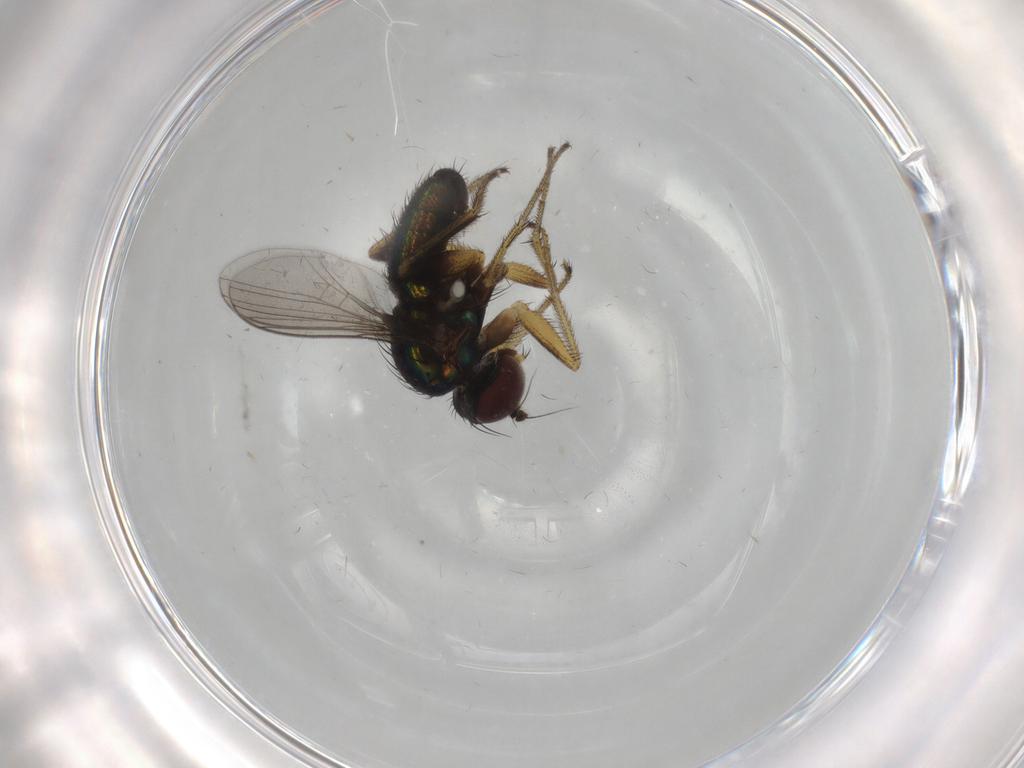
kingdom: Animalia
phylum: Arthropoda
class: Insecta
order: Diptera
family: Dolichopodidae
